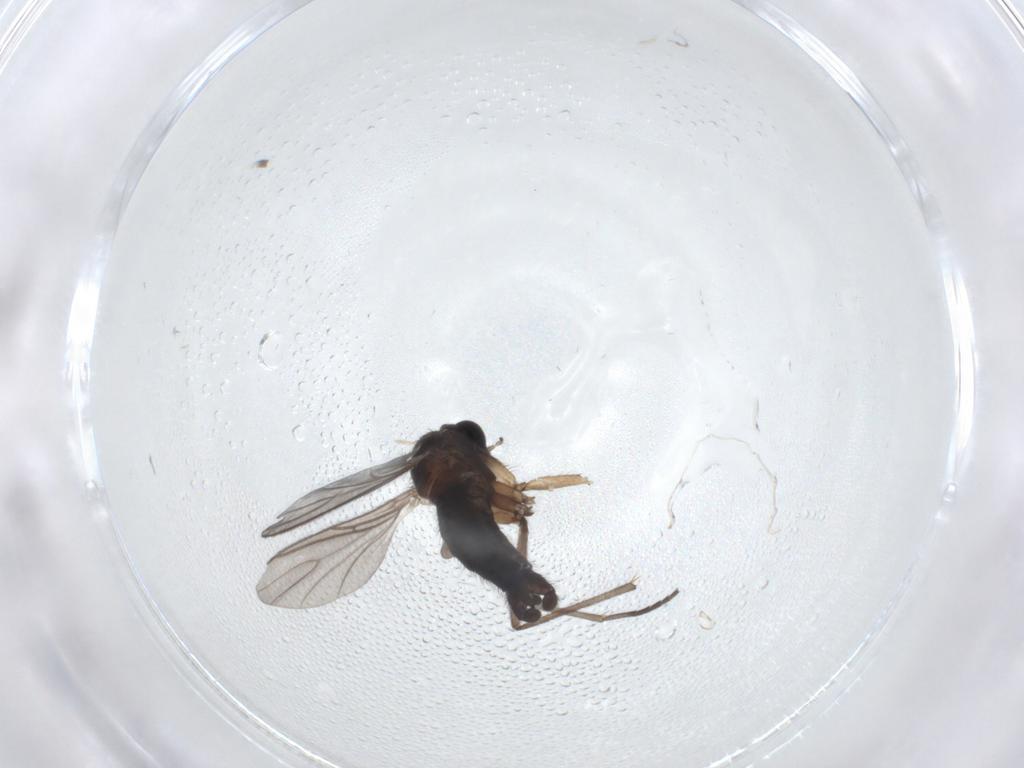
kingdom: Animalia
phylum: Arthropoda
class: Insecta
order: Diptera
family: Sciaridae
